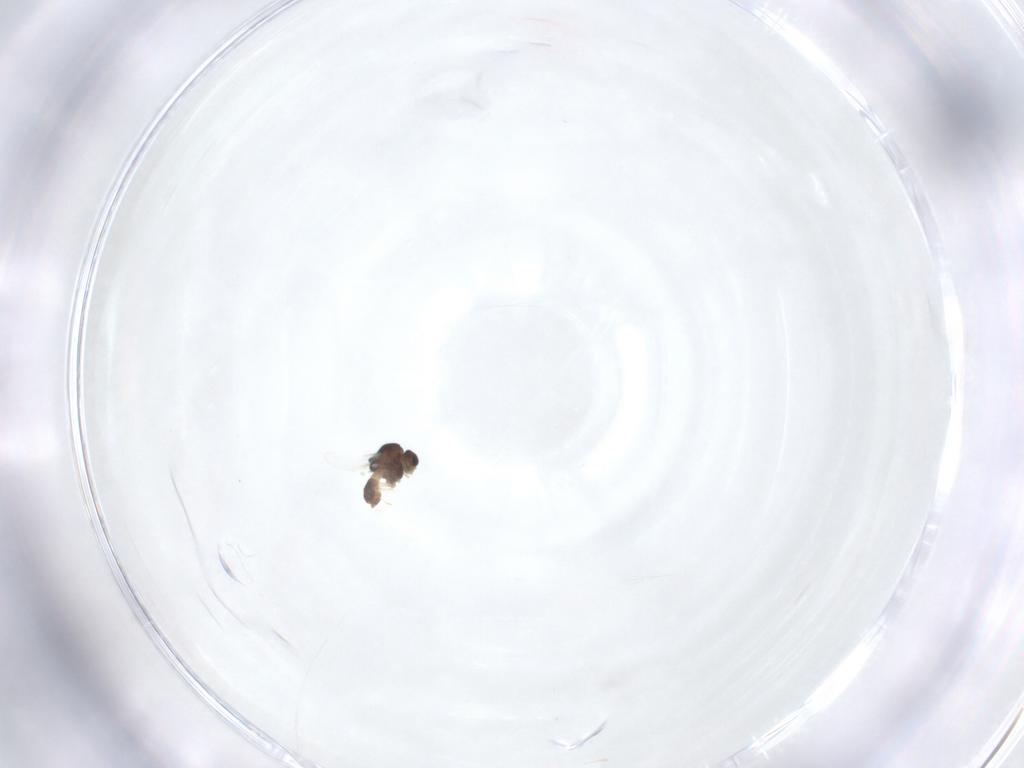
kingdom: Animalia
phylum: Arthropoda
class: Insecta
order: Diptera
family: Chironomidae
